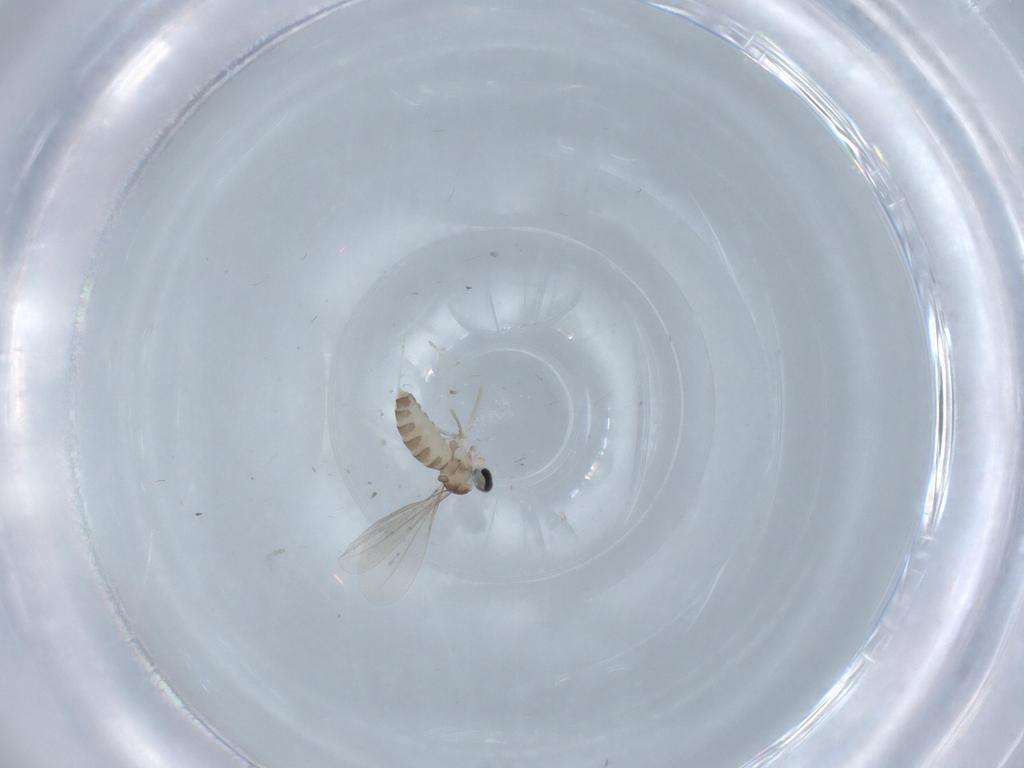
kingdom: Animalia
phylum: Arthropoda
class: Insecta
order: Diptera
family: Cecidomyiidae
